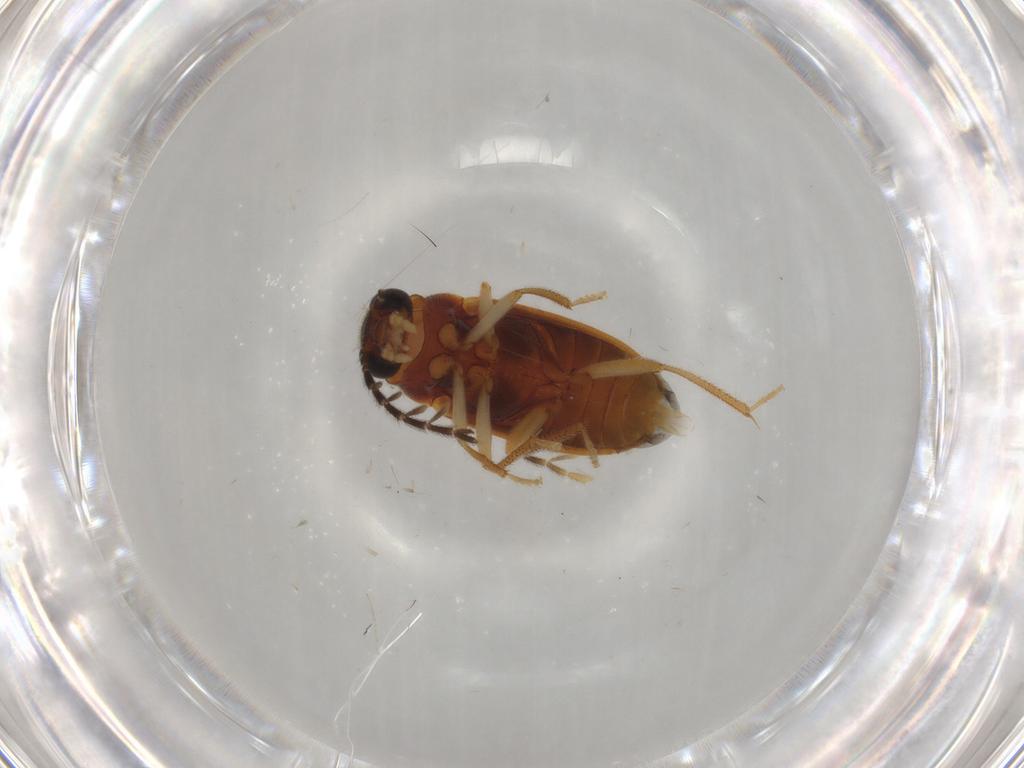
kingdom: Animalia
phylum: Arthropoda
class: Insecta
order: Coleoptera
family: Ptilodactylidae
